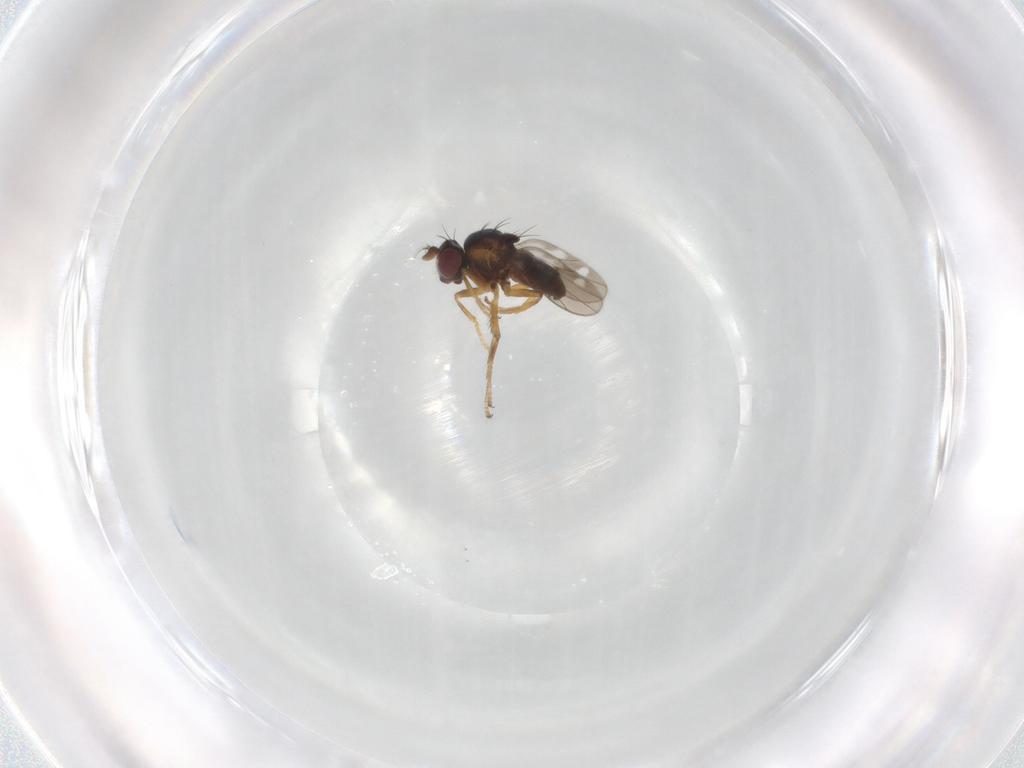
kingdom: Animalia
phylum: Arthropoda
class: Insecta
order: Diptera
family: Ephydridae
